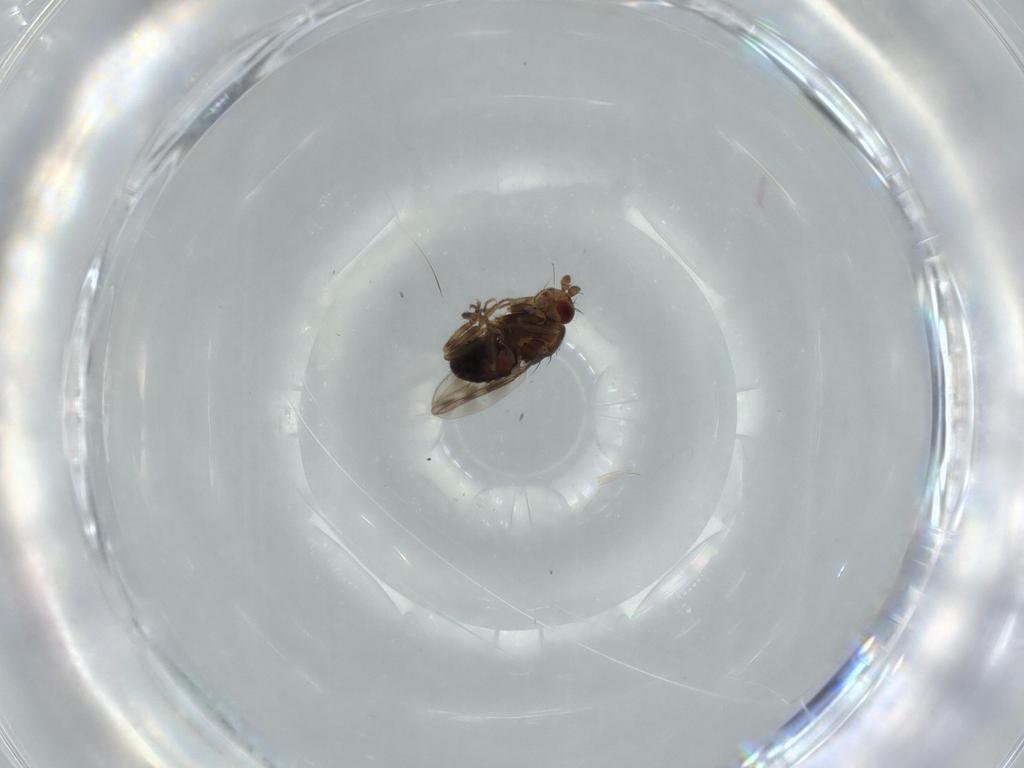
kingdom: Animalia
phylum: Arthropoda
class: Insecta
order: Diptera
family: Sphaeroceridae
